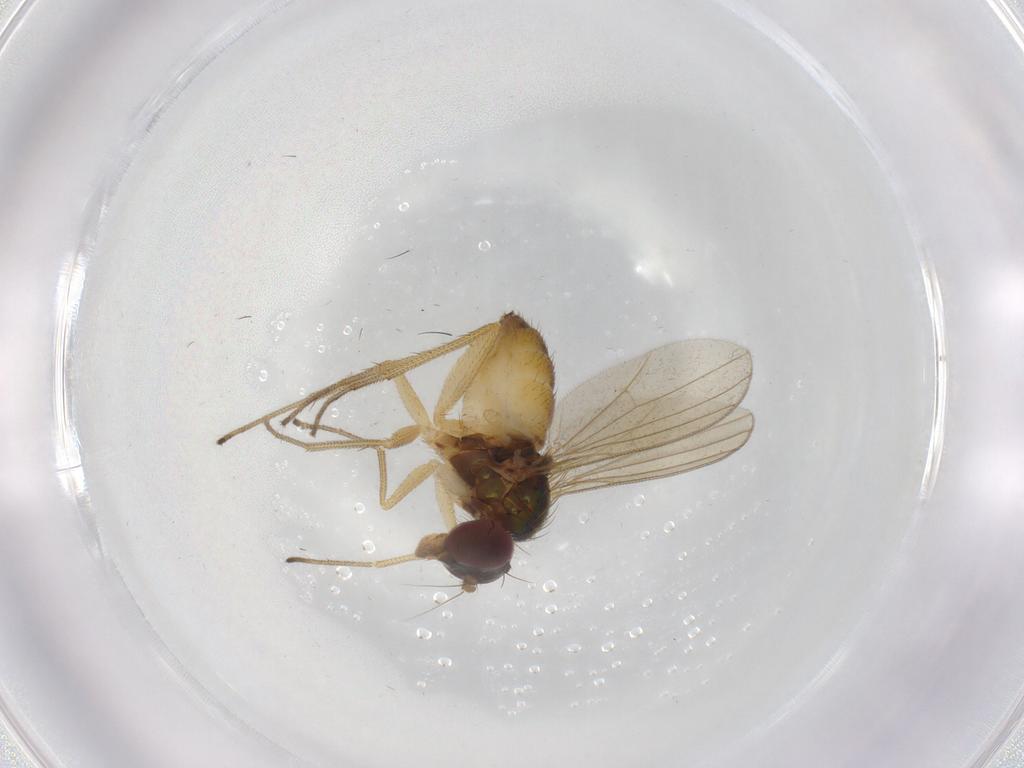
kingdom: Animalia
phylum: Arthropoda
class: Insecta
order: Diptera
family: Dolichopodidae
